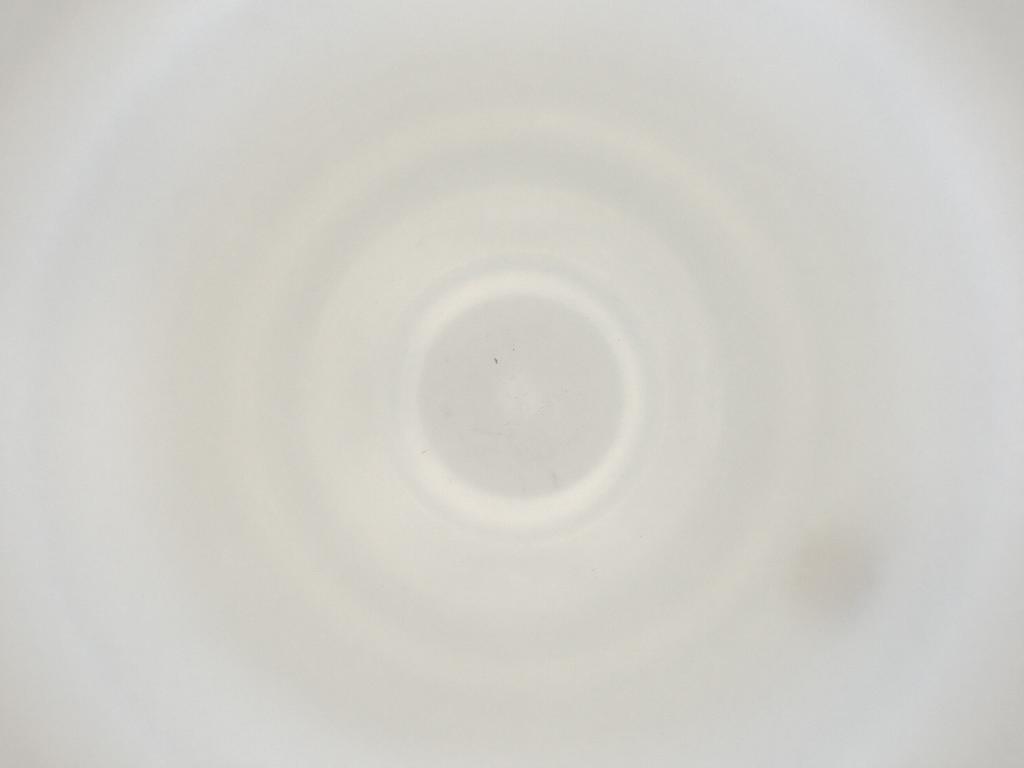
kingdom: Animalia
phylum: Arthropoda
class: Insecta
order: Diptera
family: Cecidomyiidae
